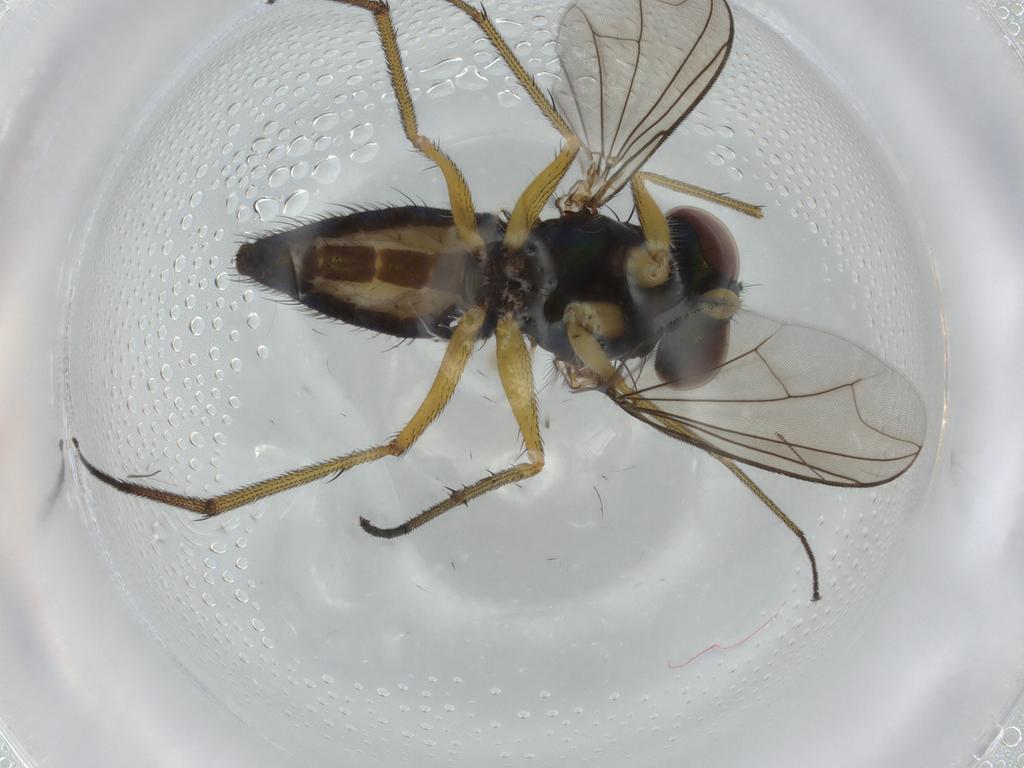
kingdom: Animalia
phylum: Arthropoda
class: Insecta
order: Diptera
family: Dolichopodidae
